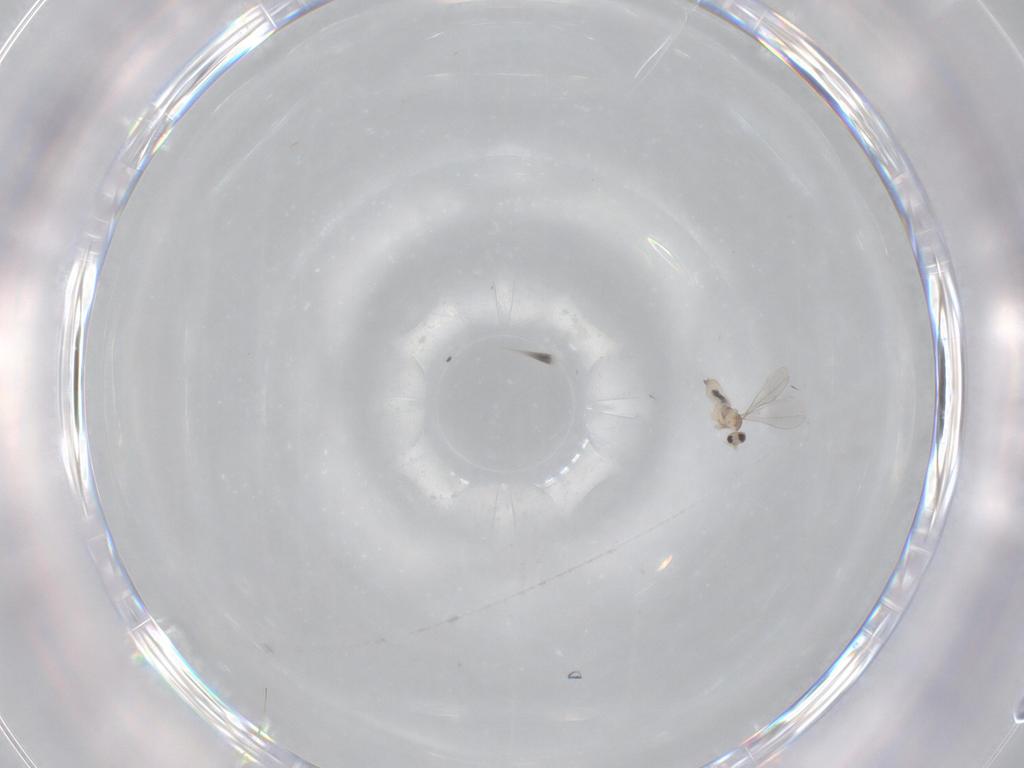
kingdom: Animalia
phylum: Arthropoda
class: Insecta
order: Diptera
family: Cecidomyiidae
